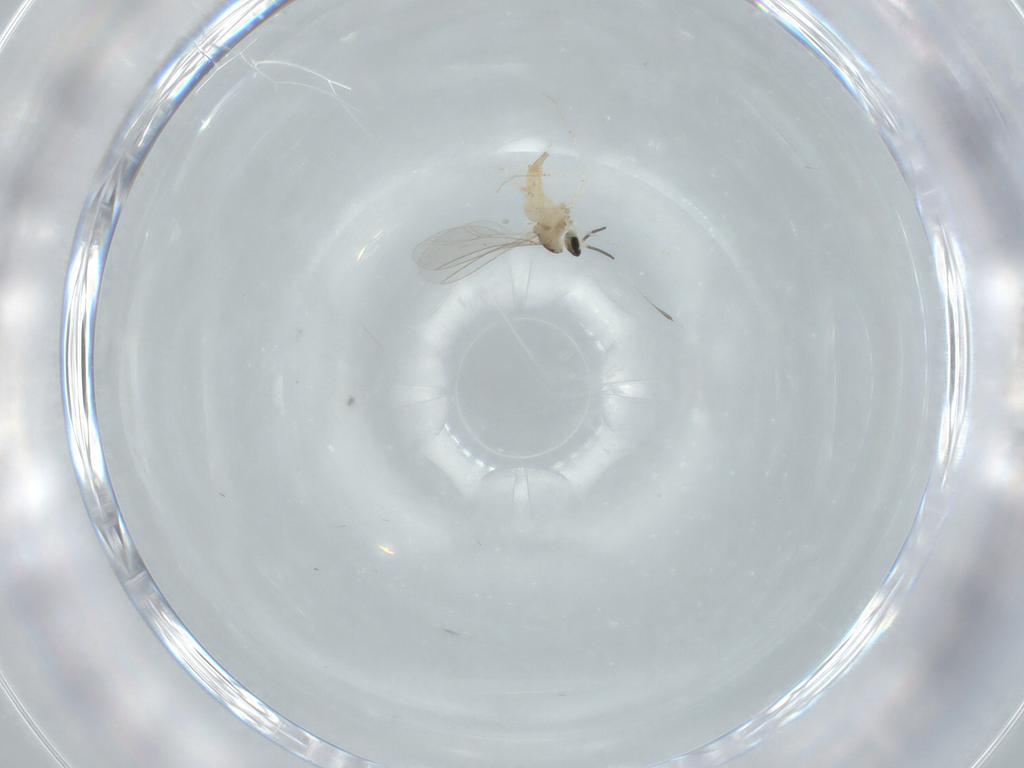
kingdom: Animalia
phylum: Arthropoda
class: Insecta
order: Diptera
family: Cecidomyiidae
